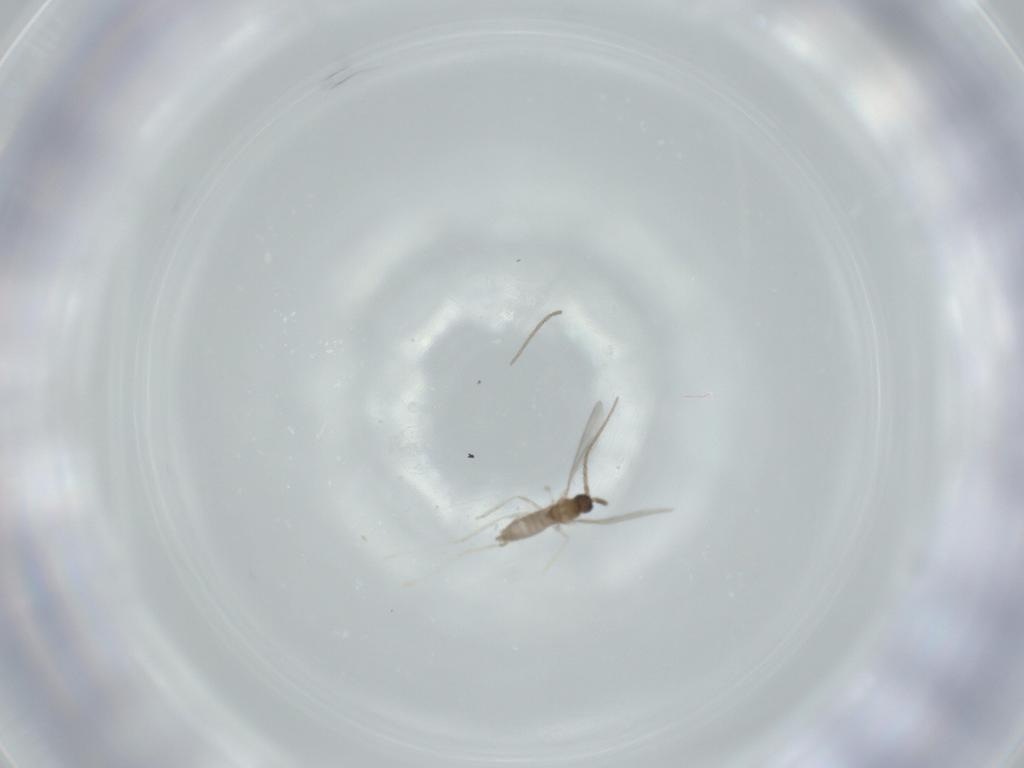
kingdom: Animalia
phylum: Arthropoda
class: Insecta
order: Diptera
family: Cecidomyiidae
